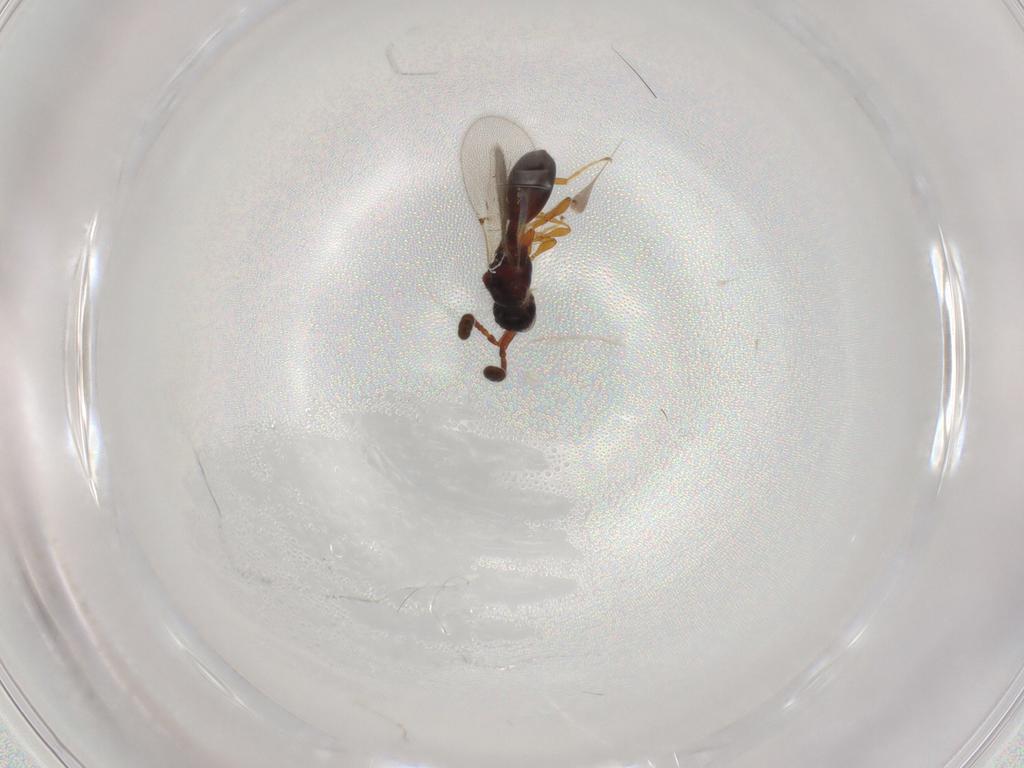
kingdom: Animalia
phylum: Arthropoda
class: Insecta
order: Hymenoptera
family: Diapriidae
